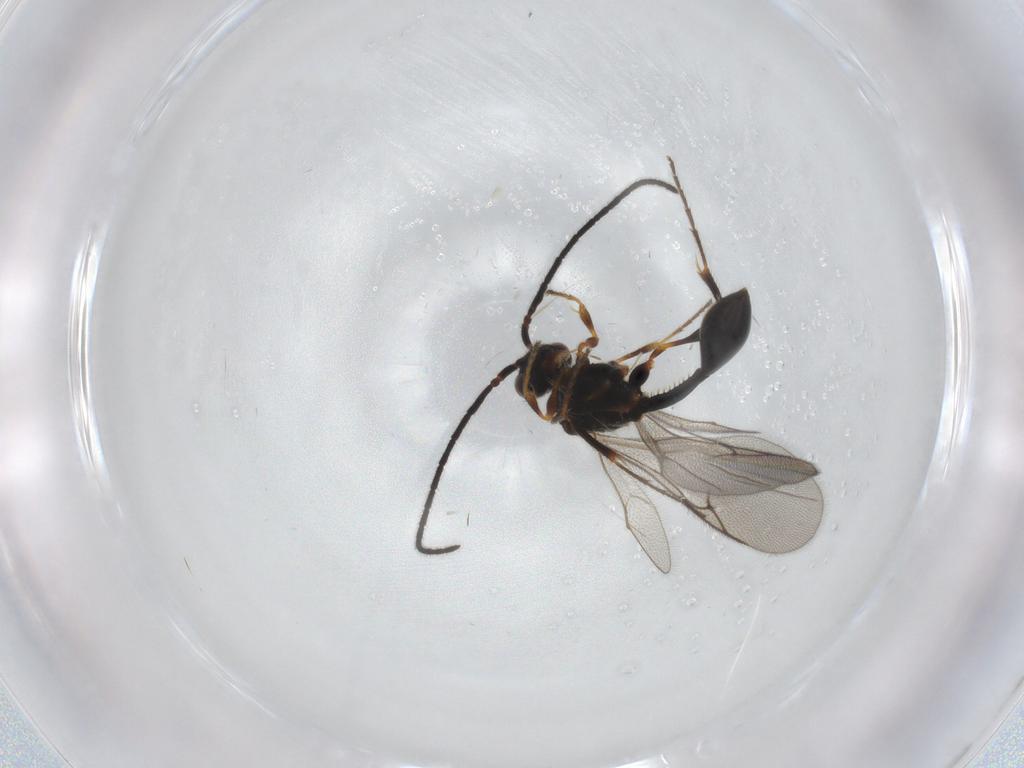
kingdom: Animalia
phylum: Arthropoda
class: Insecta
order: Hymenoptera
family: Diapriidae
